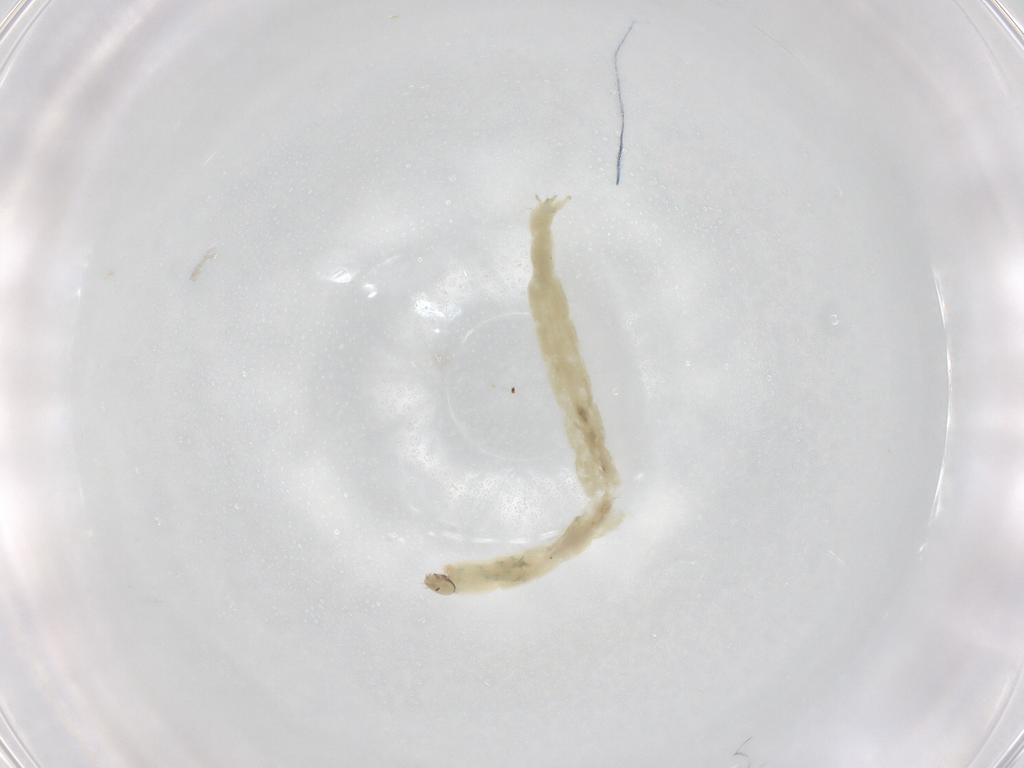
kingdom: Animalia
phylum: Arthropoda
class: Insecta
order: Diptera
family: Chironomidae
